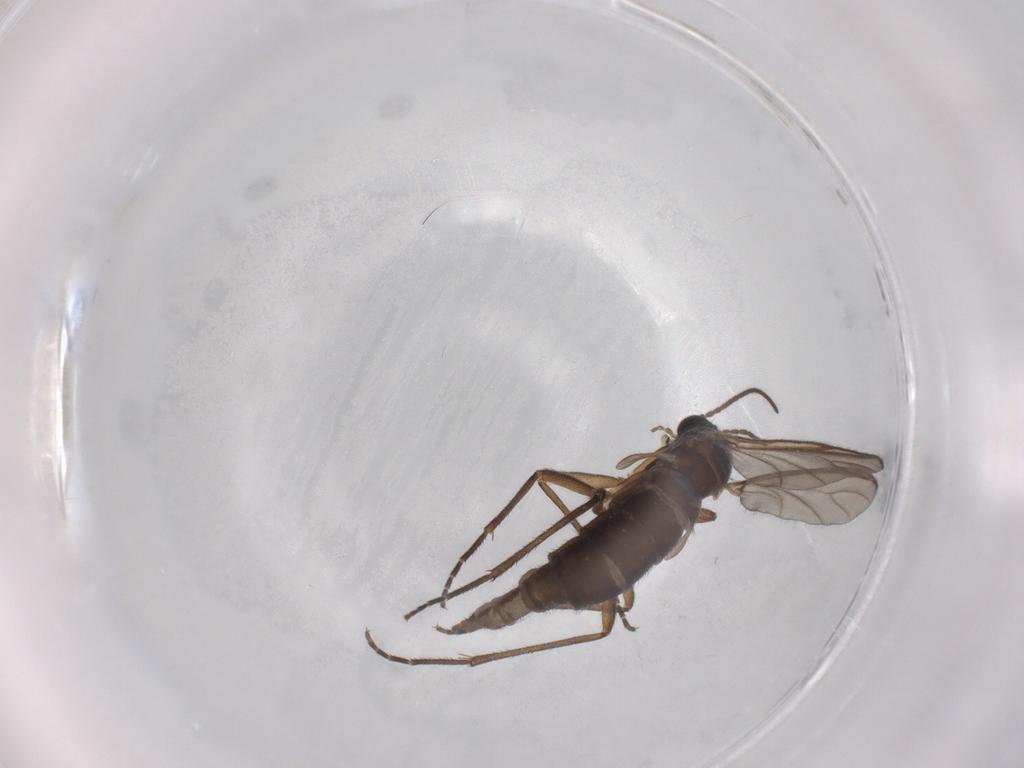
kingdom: Animalia
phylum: Arthropoda
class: Insecta
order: Diptera
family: Sciaridae
